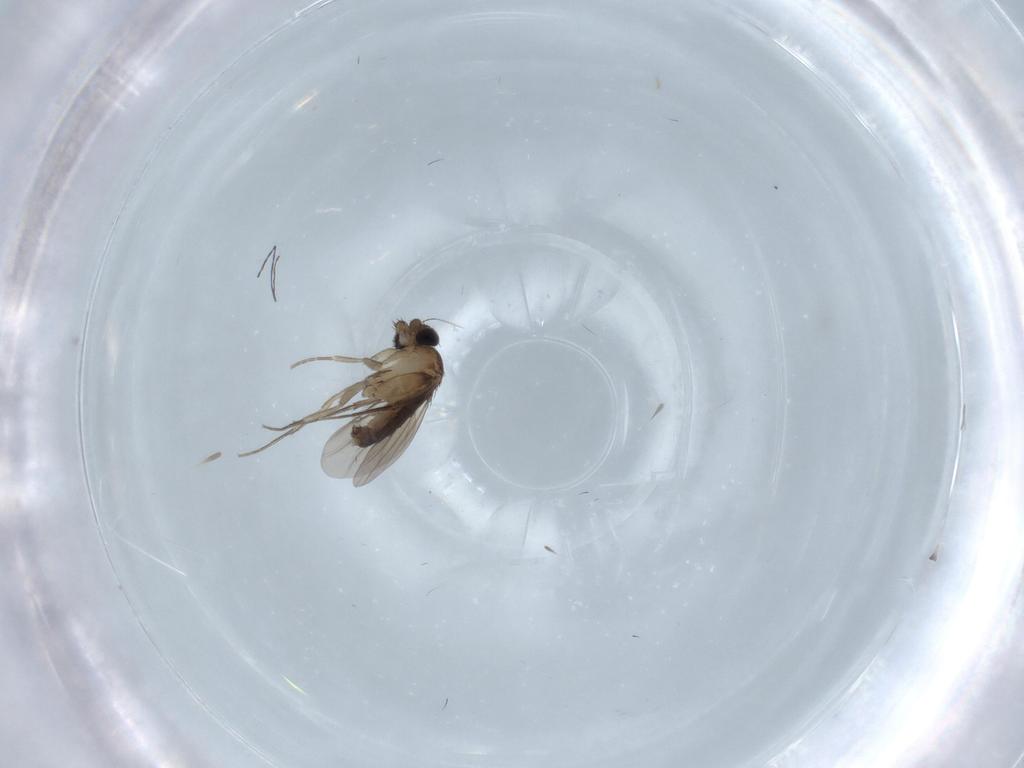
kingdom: Animalia
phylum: Arthropoda
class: Insecta
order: Diptera
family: Phoridae
